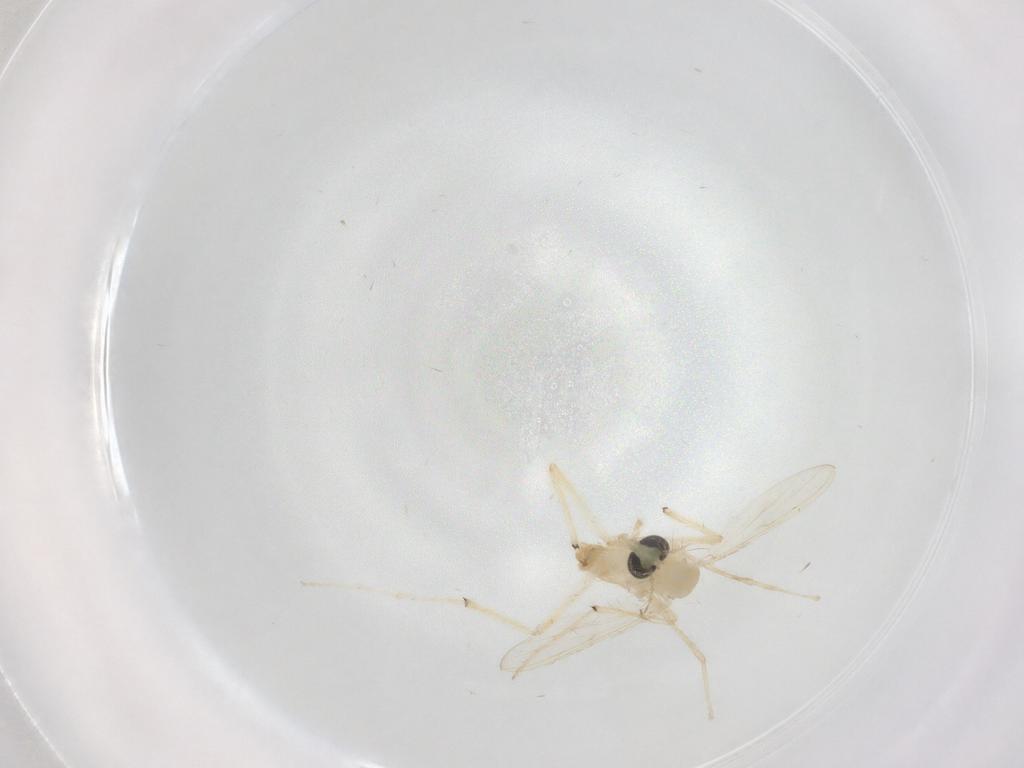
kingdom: Animalia
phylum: Arthropoda
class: Insecta
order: Diptera
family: Chironomidae
